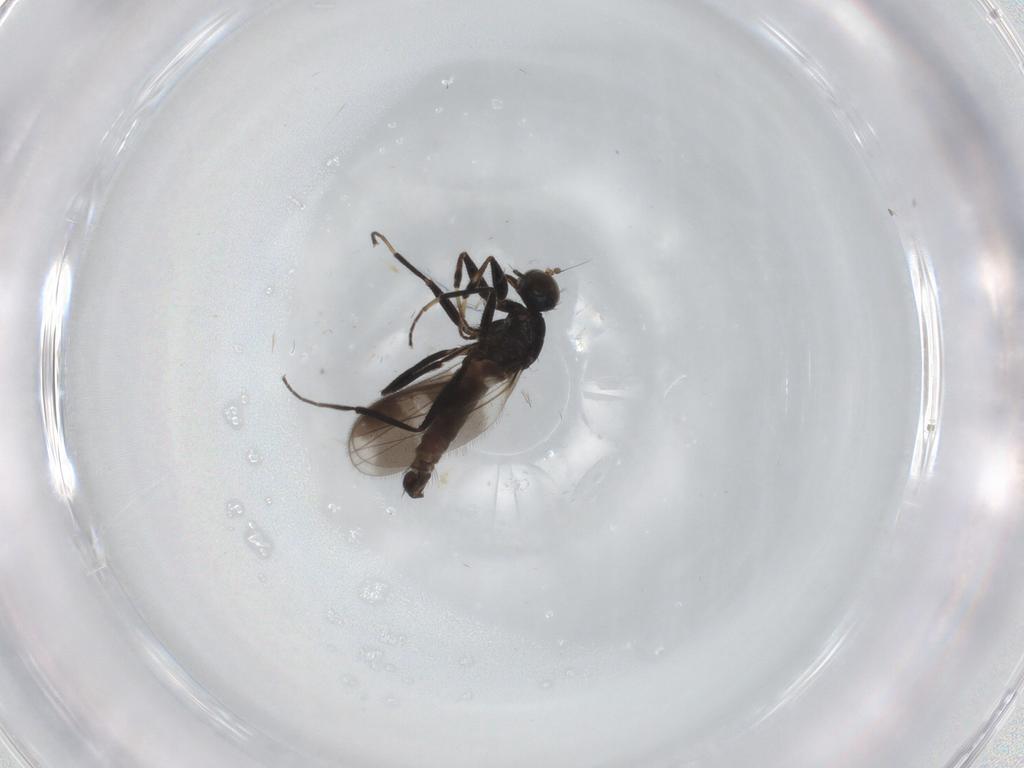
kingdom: Animalia
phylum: Arthropoda
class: Insecta
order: Diptera
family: Hybotidae
